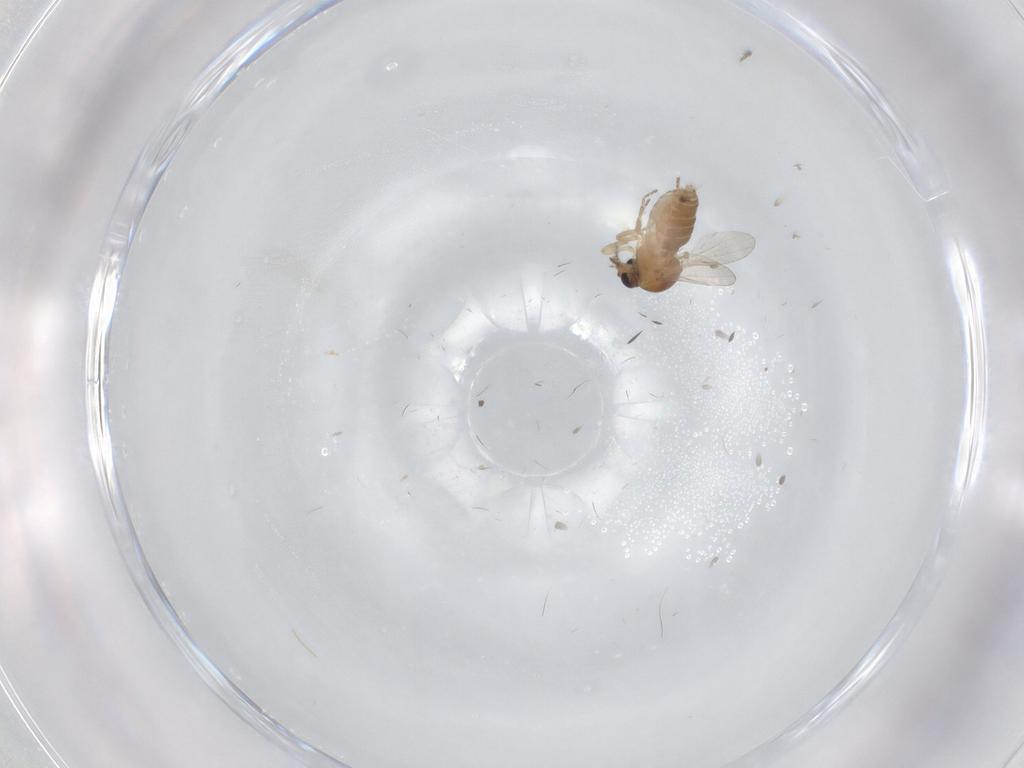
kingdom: Animalia
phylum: Arthropoda
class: Insecta
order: Diptera
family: Ceratopogonidae
